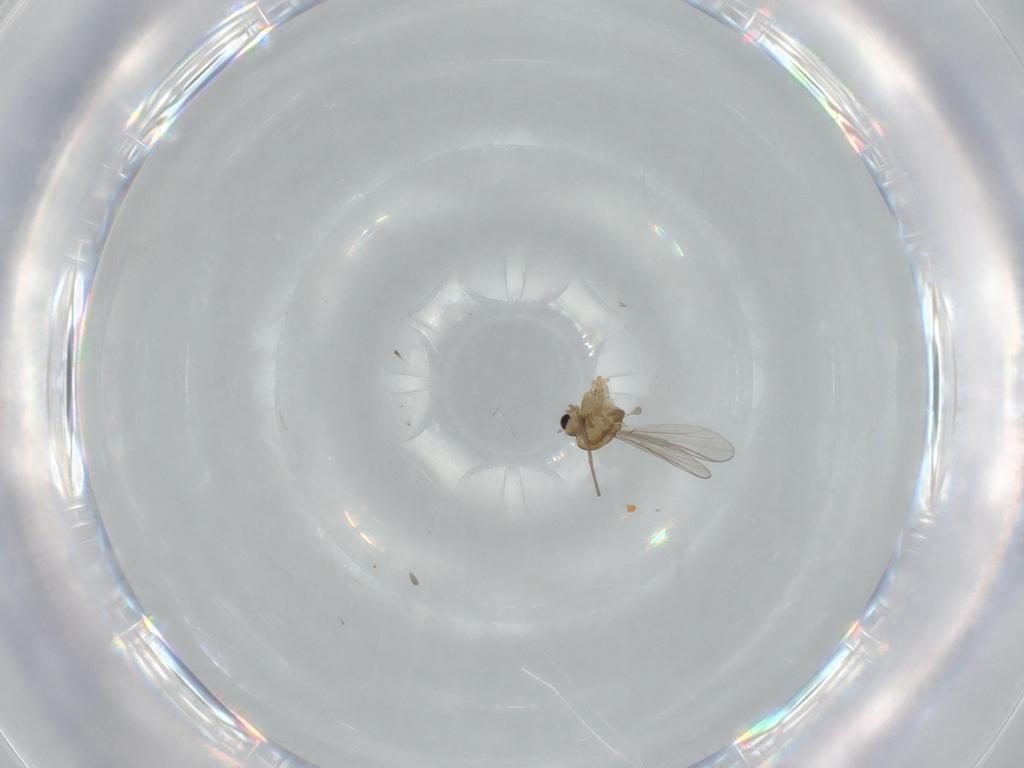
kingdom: Animalia
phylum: Arthropoda
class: Insecta
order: Diptera
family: Chironomidae
